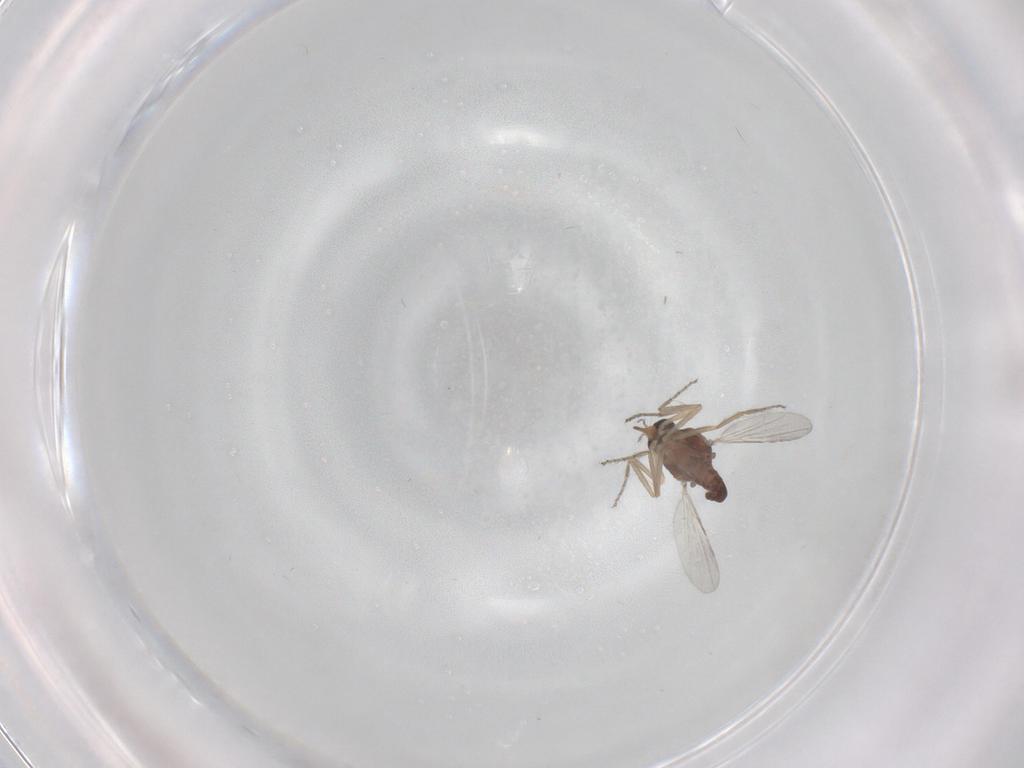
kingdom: Animalia
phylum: Arthropoda
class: Insecta
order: Diptera
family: Ceratopogonidae
